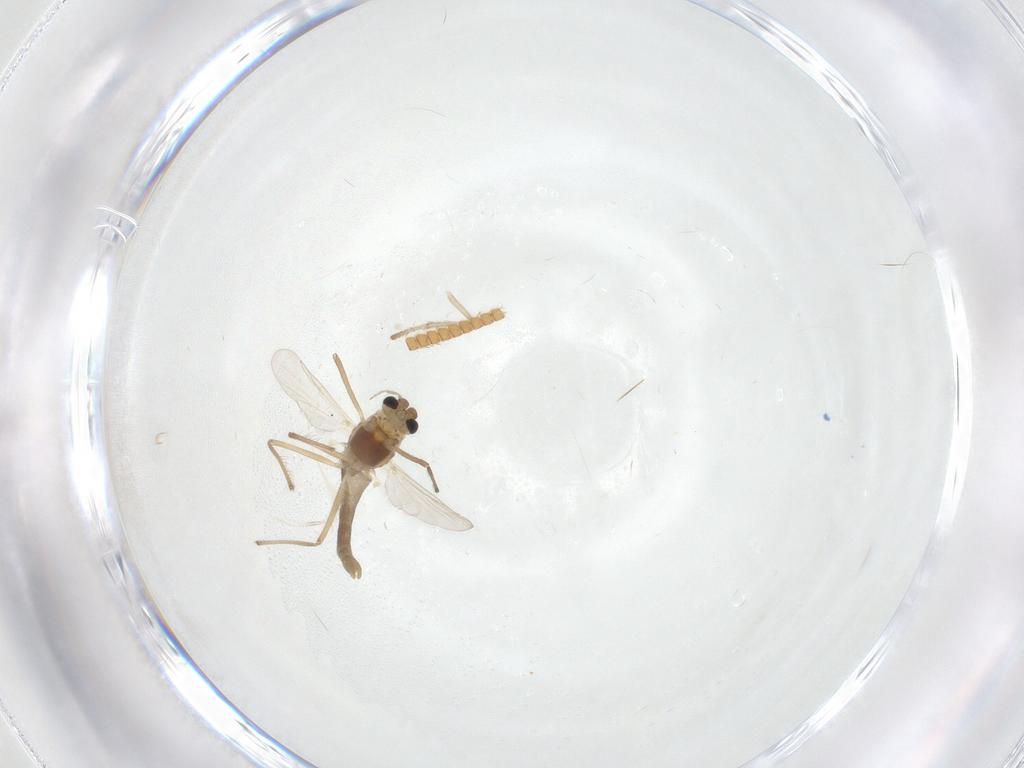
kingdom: Animalia
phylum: Arthropoda
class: Insecta
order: Diptera
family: Chironomidae
